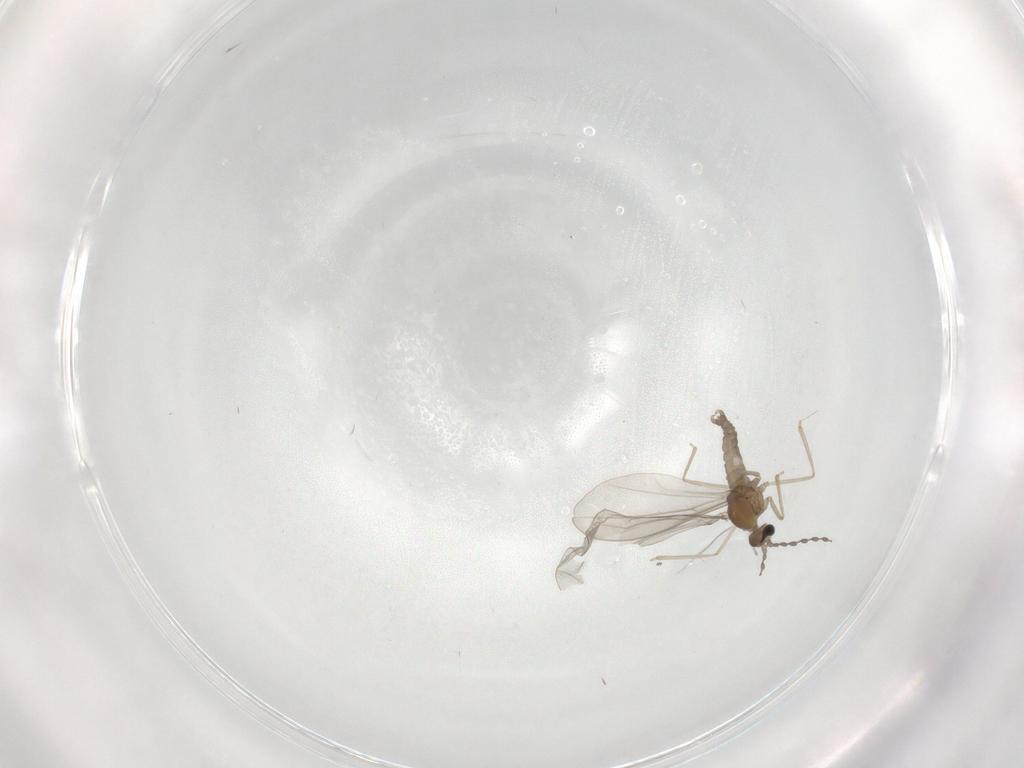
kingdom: Animalia
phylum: Arthropoda
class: Insecta
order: Diptera
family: Cecidomyiidae
